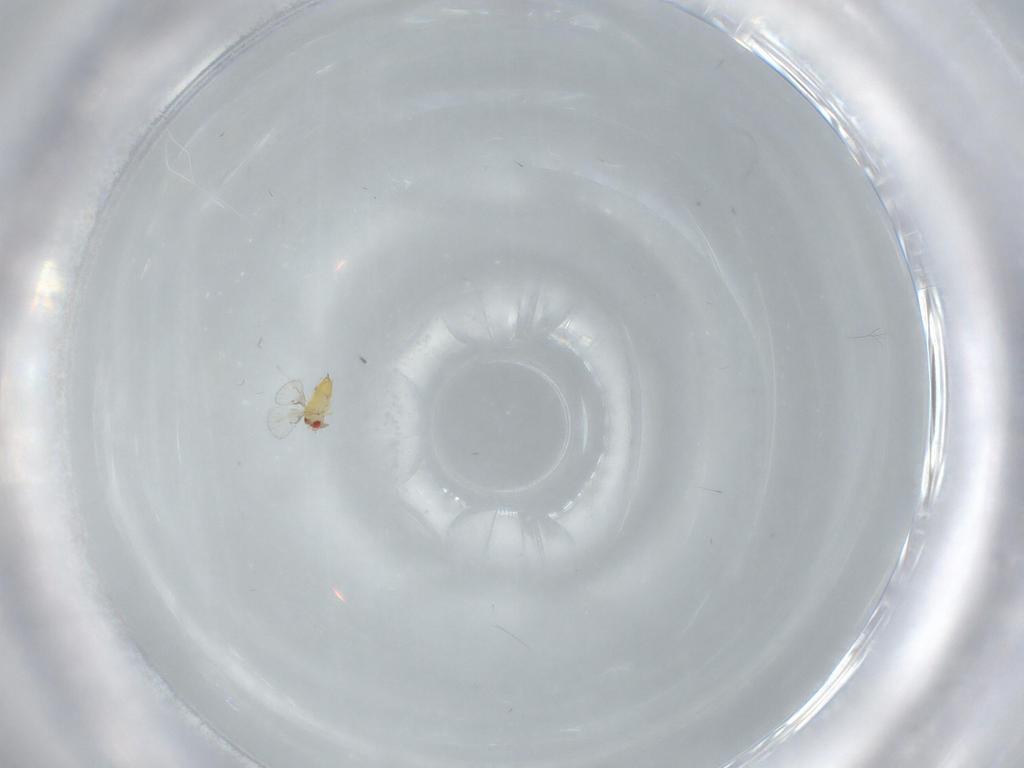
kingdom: Animalia
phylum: Arthropoda
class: Insecta
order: Hymenoptera
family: Trichogrammatidae
